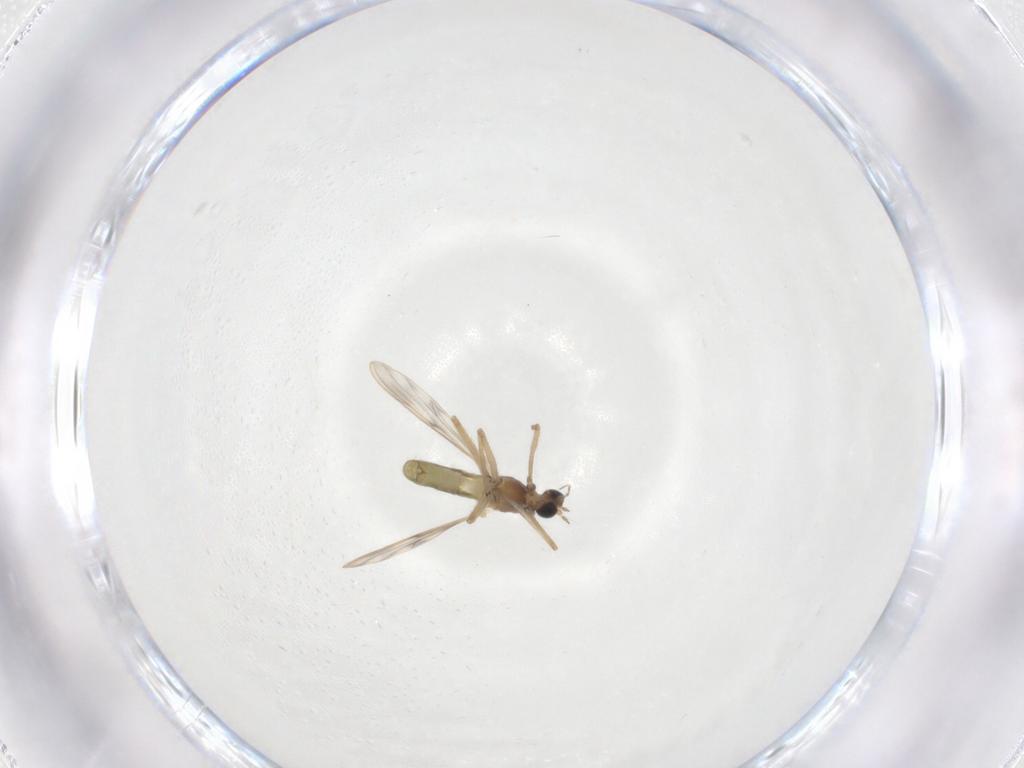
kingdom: Animalia
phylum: Arthropoda
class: Insecta
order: Diptera
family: Chironomidae
